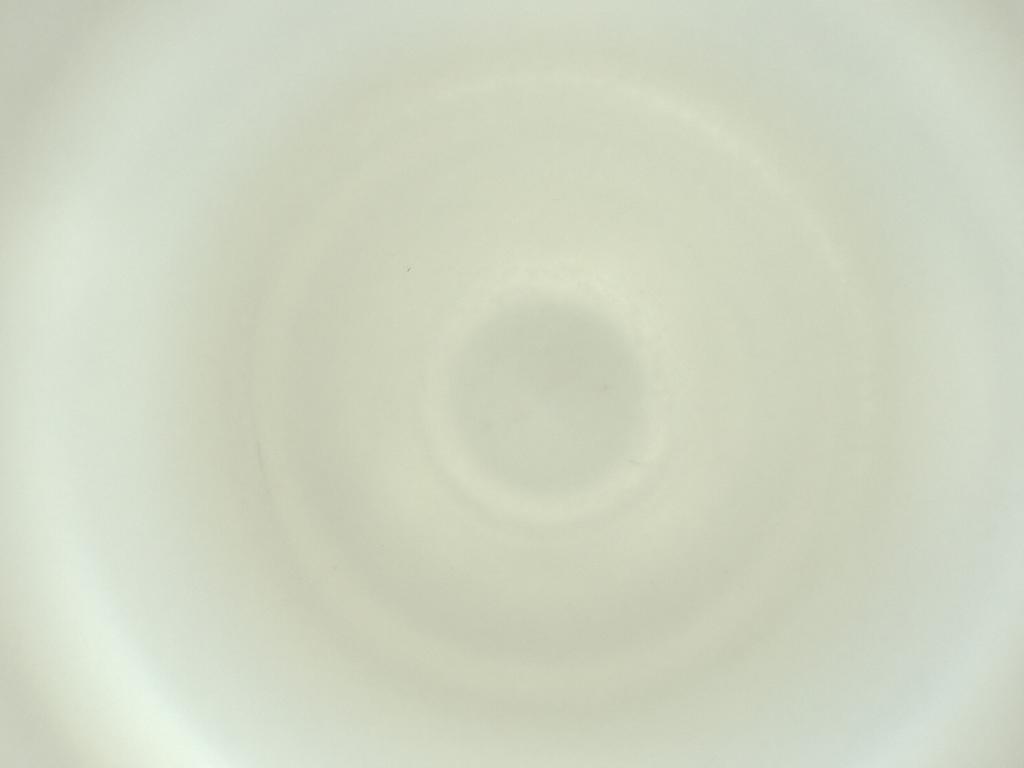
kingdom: Animalia
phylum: Arthropoda
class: Insecta
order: Diptera
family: Cecidomyiidae
